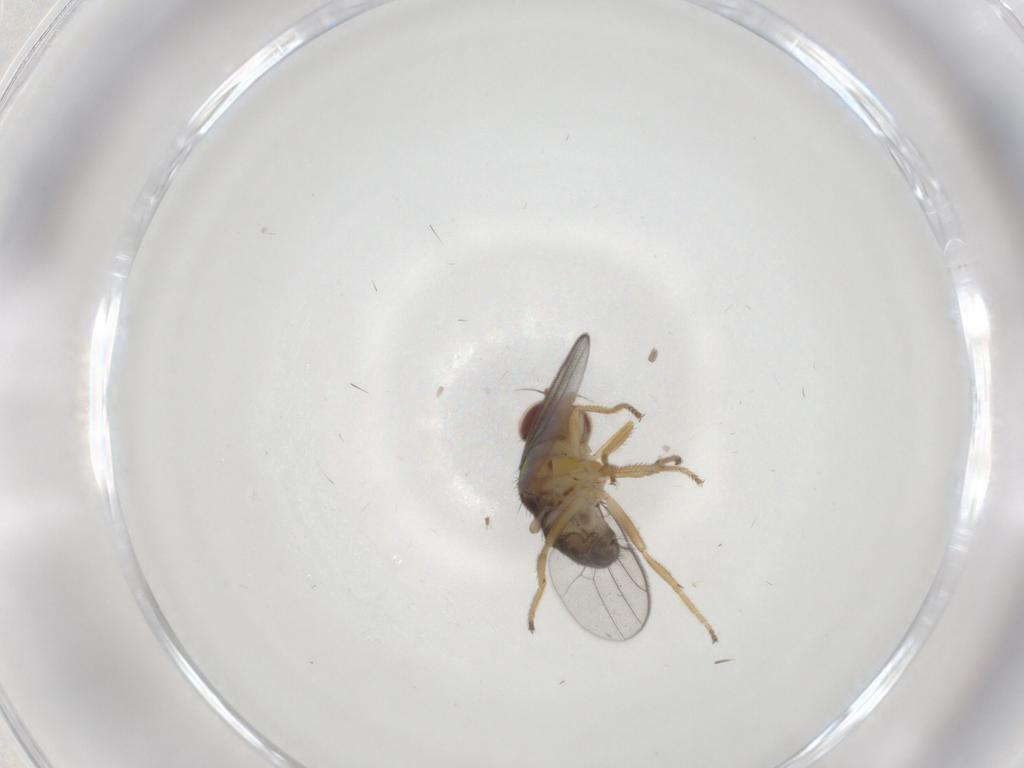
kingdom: Animalia
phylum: Arthropoda
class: Insecta
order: Diptera
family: Chloropidae
